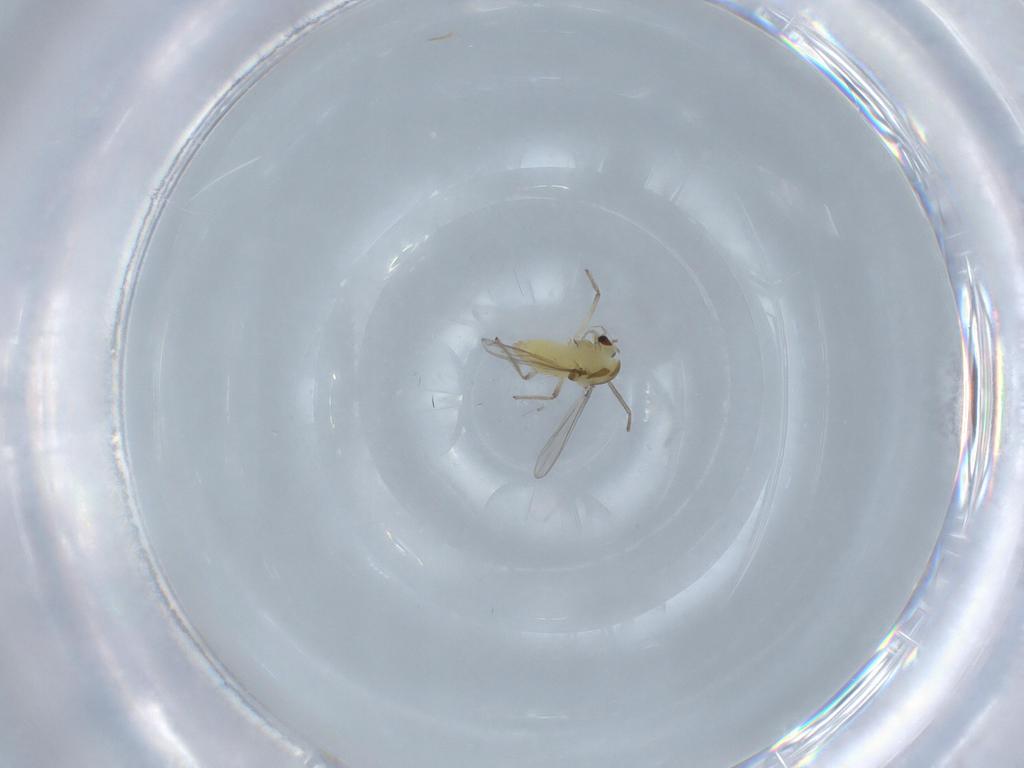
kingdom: Animalia
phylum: Arthropoda
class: Insecta
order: Diptera
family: Chironomidae
